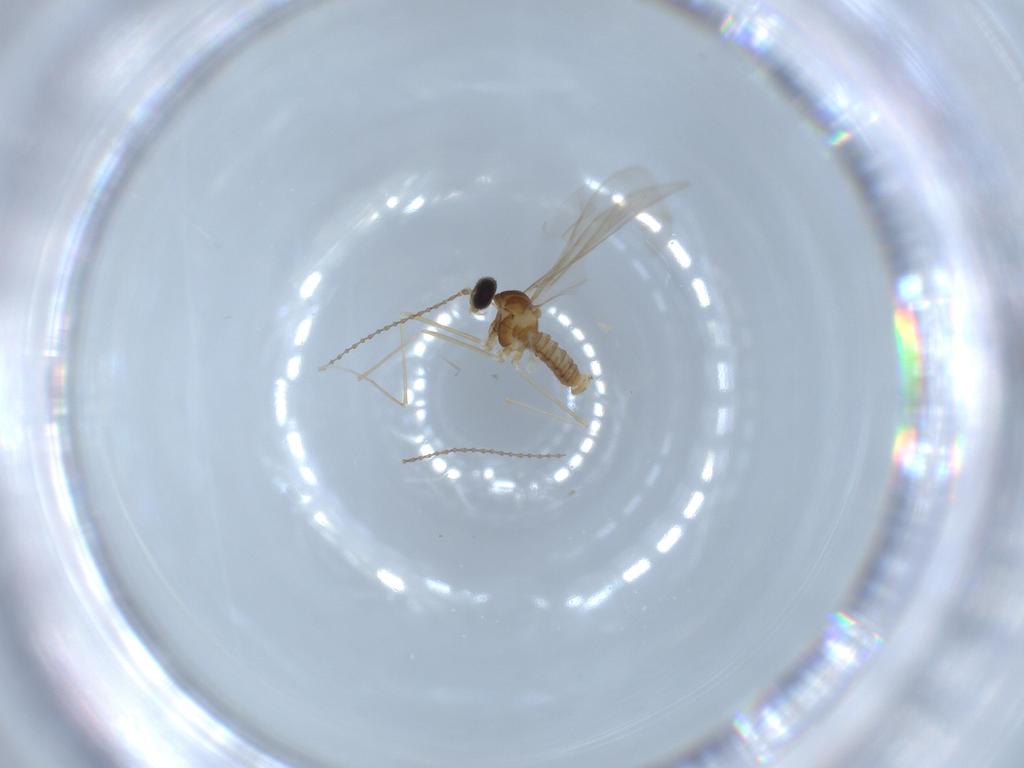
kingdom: Animalia
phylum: Arthropoda
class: Insecta
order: Diptera
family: Cecidomyiidae
